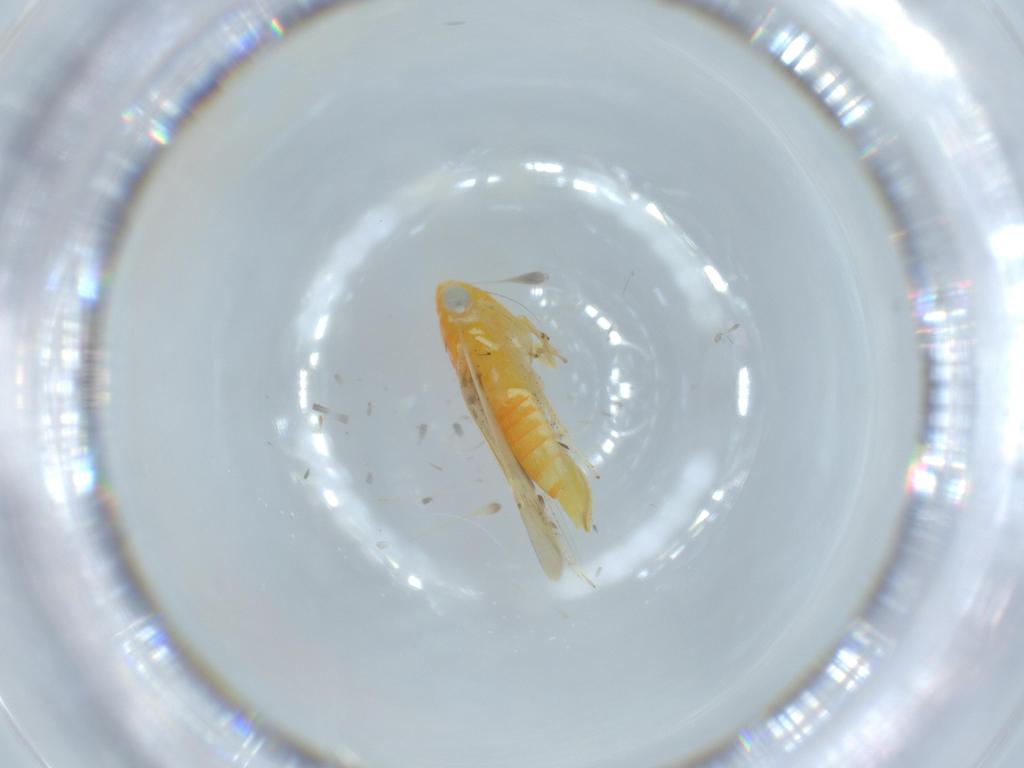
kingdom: Animalia
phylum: Arthropoda
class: Insecta
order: Hemiptera
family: Cicadellidae
